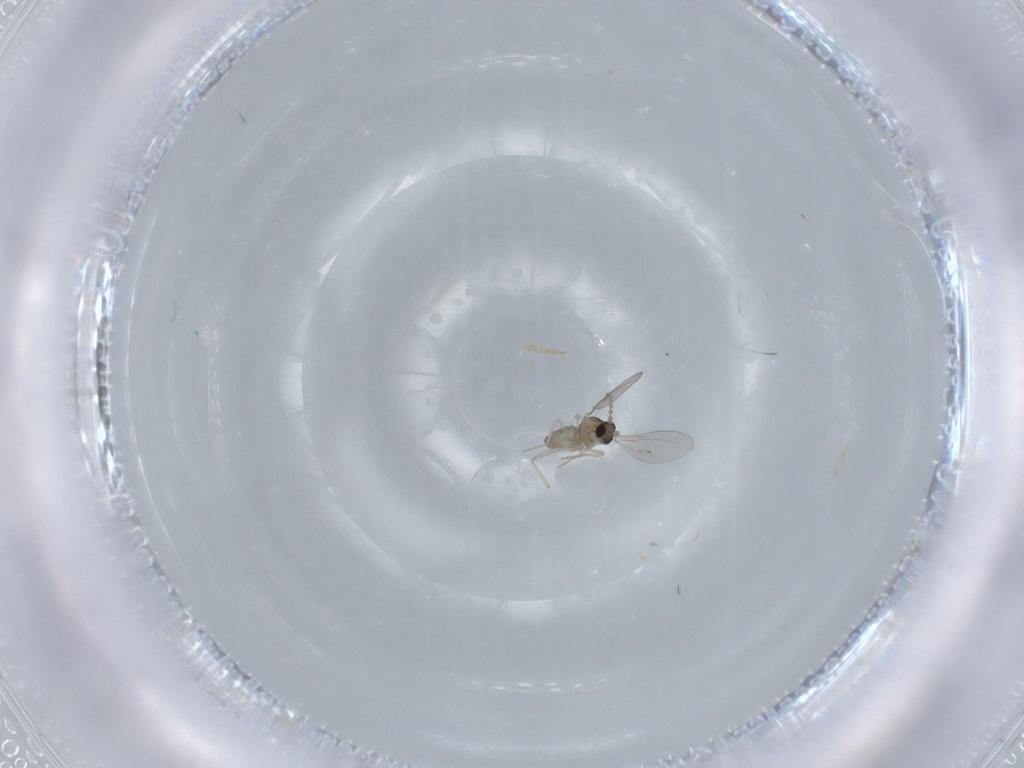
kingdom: Animalia
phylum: Arthropoda
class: Insecta
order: Diptera
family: Cecidomyiidae
